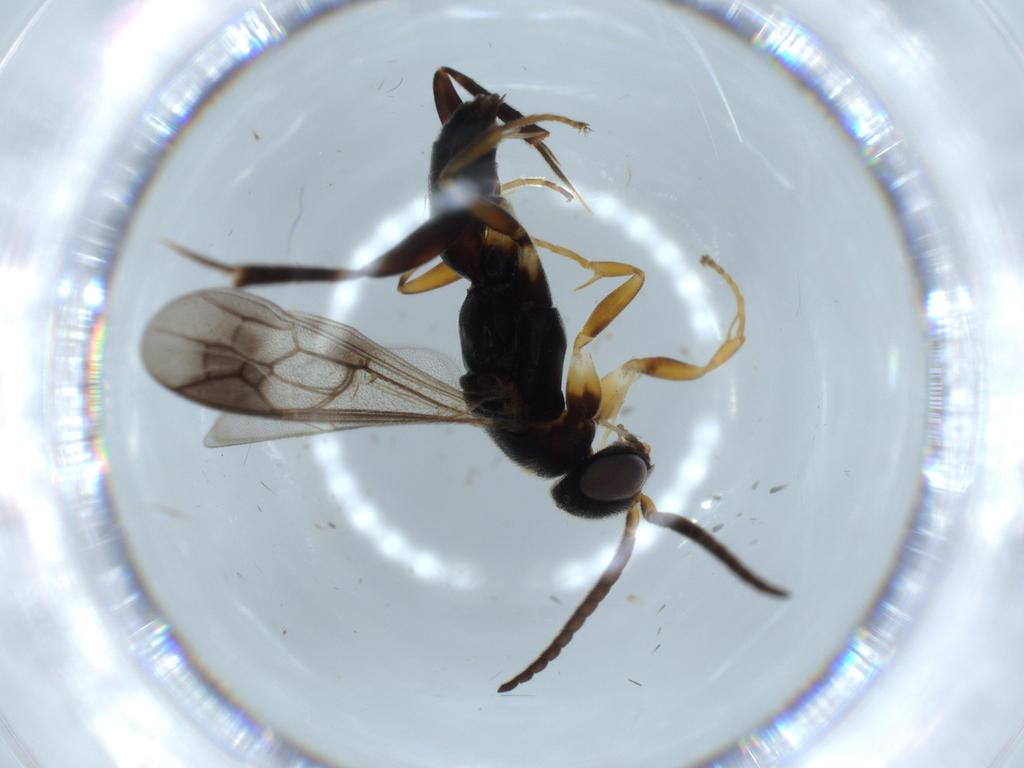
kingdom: Animalia
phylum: Arthropoda
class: Insecta
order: Hymenoptera
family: Pompilidae
